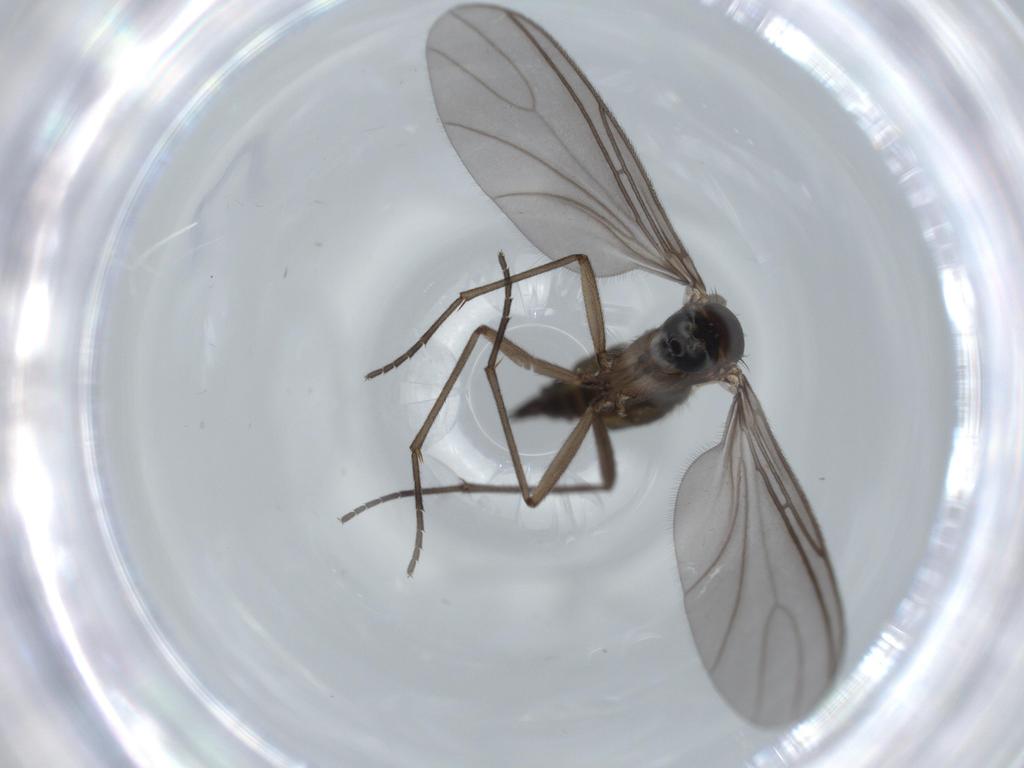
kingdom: Animalia
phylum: Arthropoda
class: Insecta
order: Diptera
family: Sciaridae
